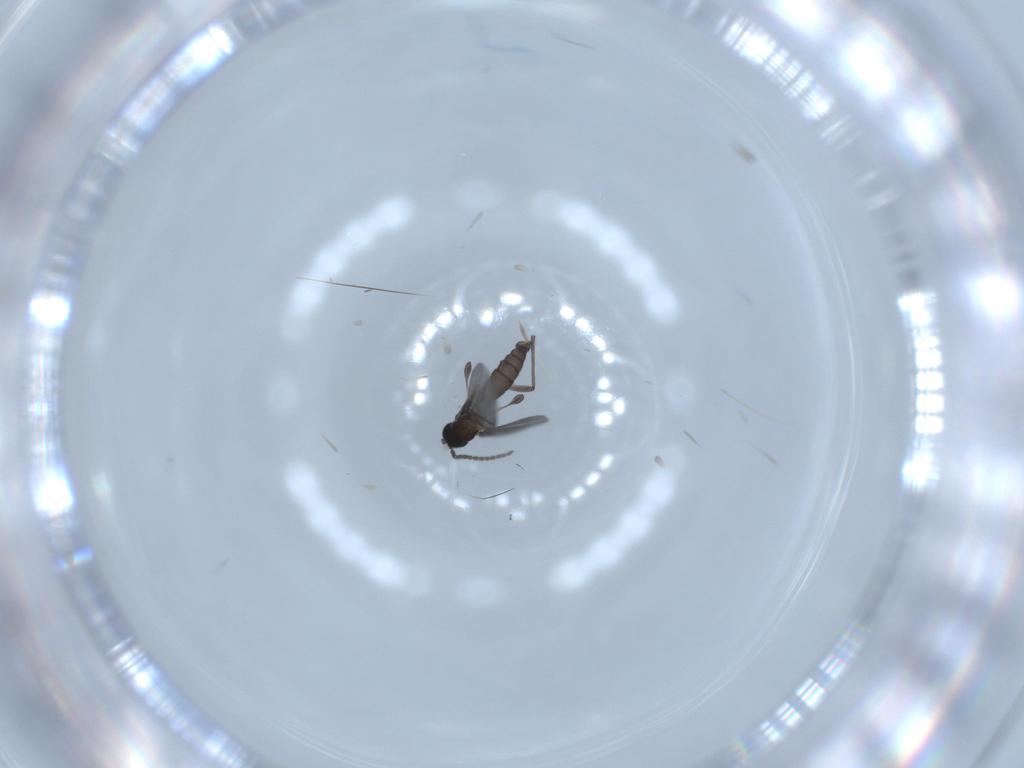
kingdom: Animalia
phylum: Arthropoda
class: Insecta
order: Diptera
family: Sciaridae
